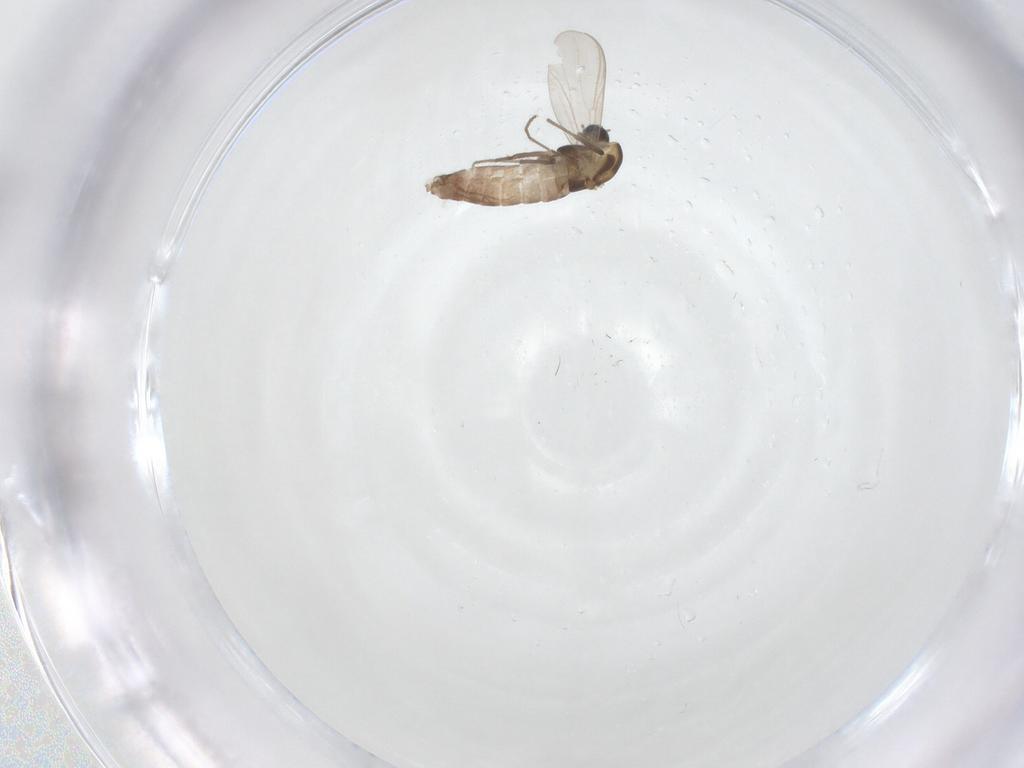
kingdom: Animalia
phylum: Arthropoda
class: Insecta
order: Diptera
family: Chironomidae
